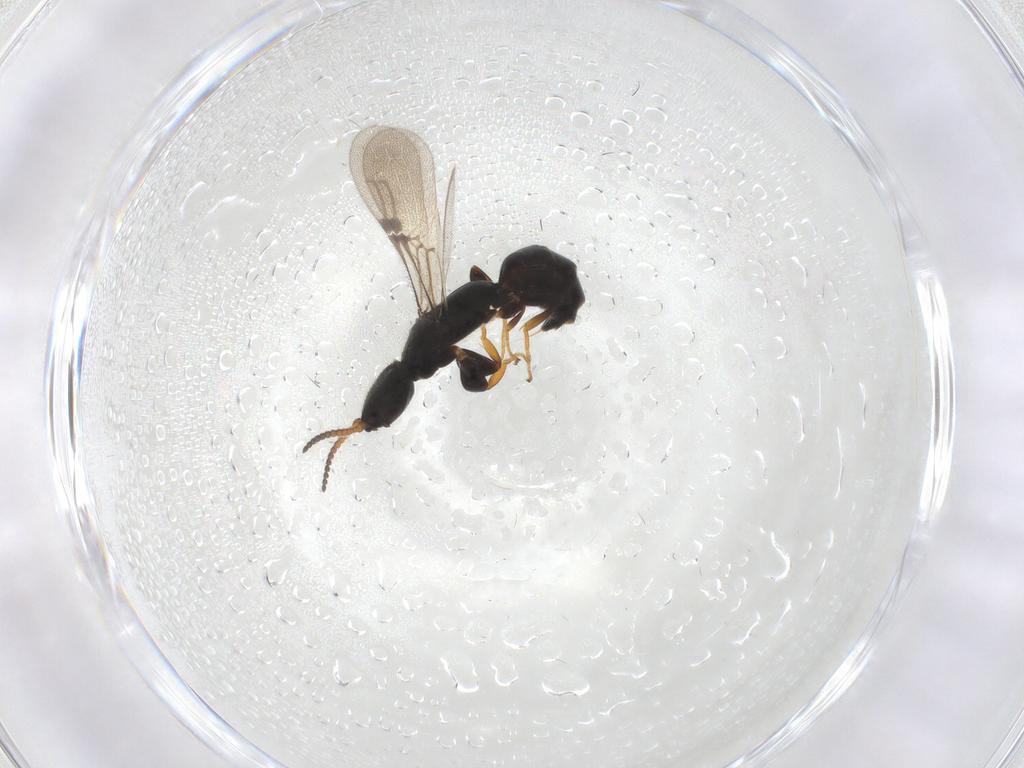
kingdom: Animalia
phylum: Arthropoda
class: Insecta
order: Hymenoptera
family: Bethylidae
